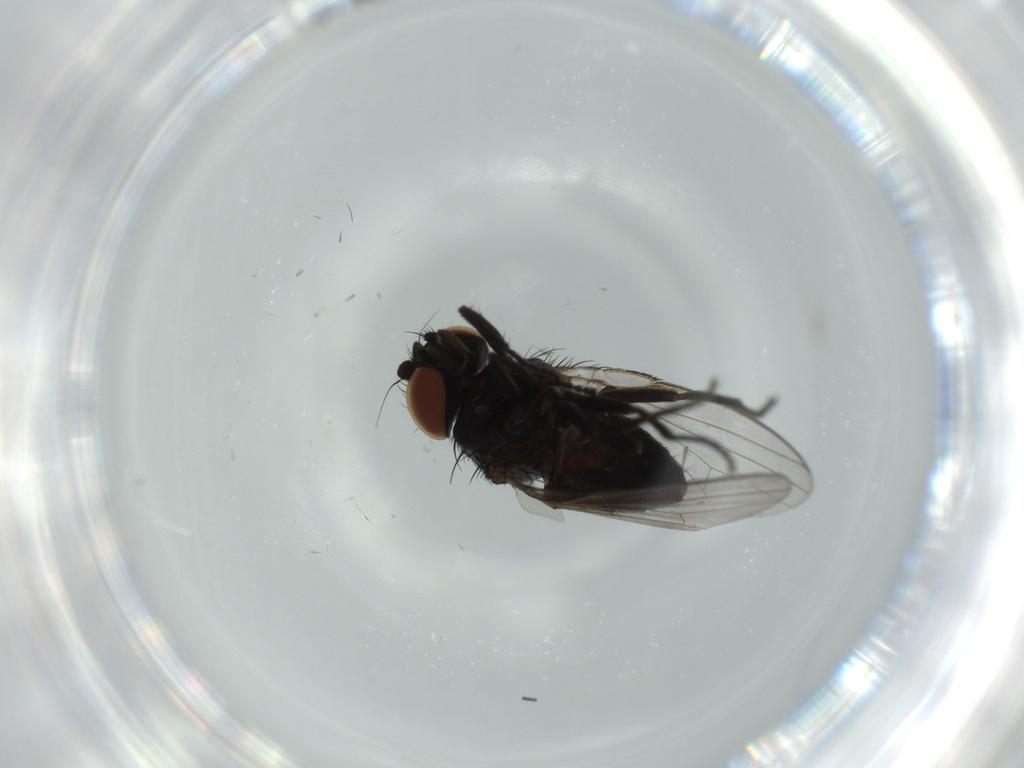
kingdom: Animalia
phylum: Arthropoda
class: Insecta
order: Diptera
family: Milichiidae
